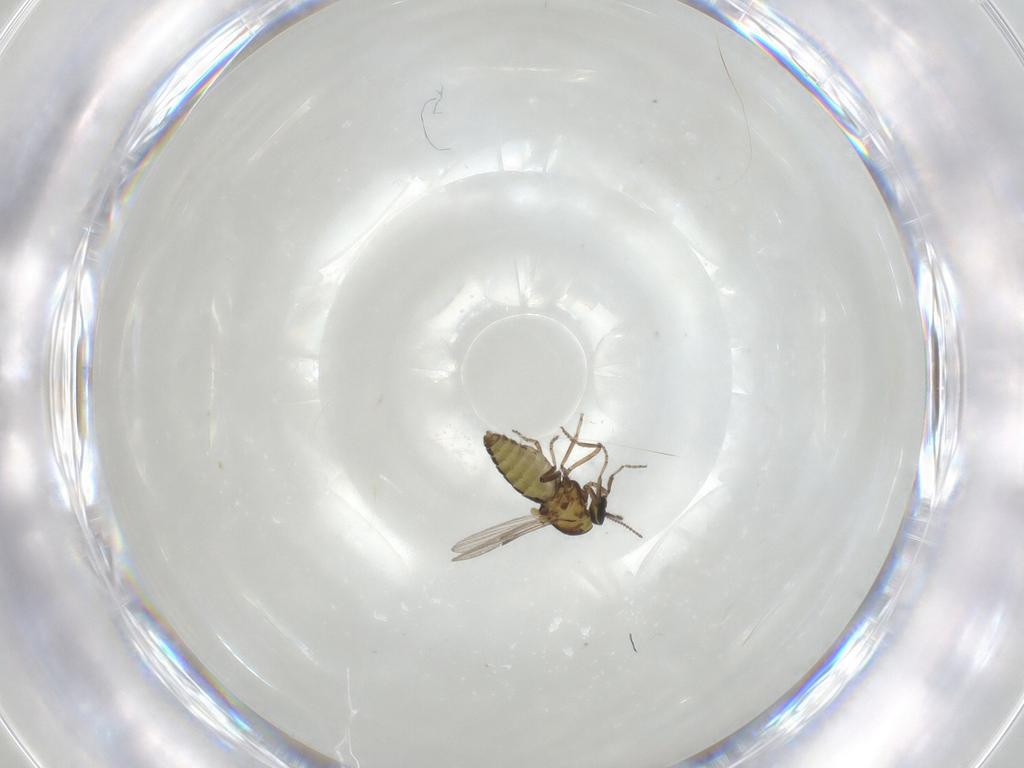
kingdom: Animalia
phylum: Arthropoda
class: Insecta
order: Diptera
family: Ceratopogonidae
